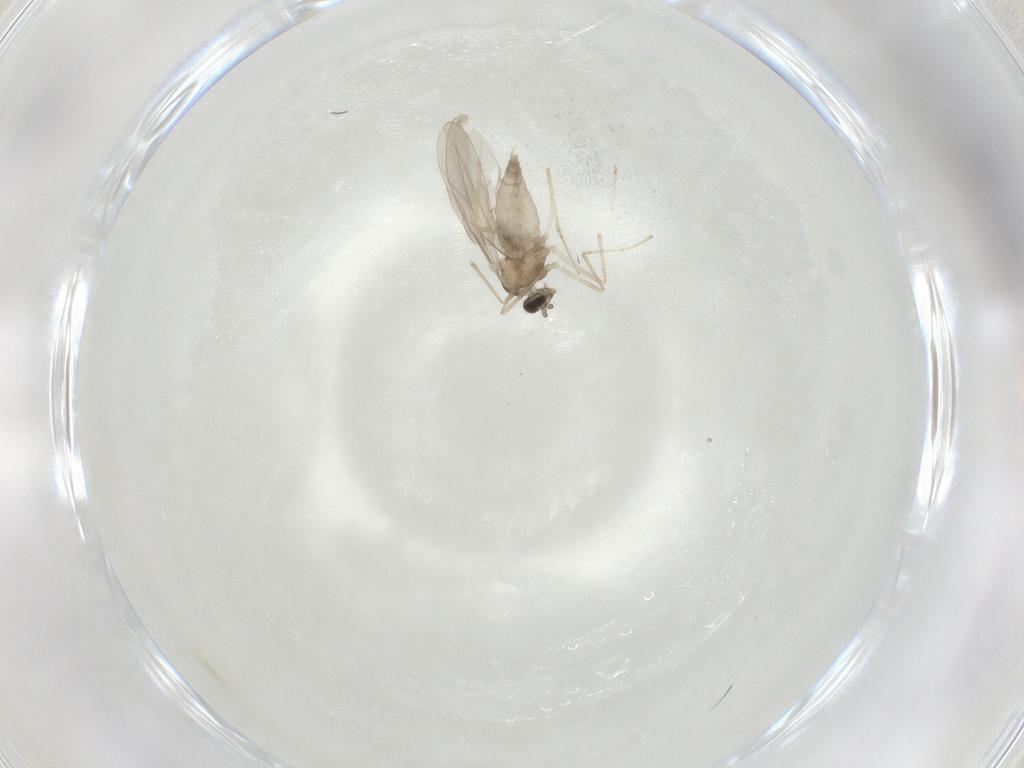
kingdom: Animalia
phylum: Arthropoda
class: Insecta
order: Diptera
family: Cecidomyiidae
